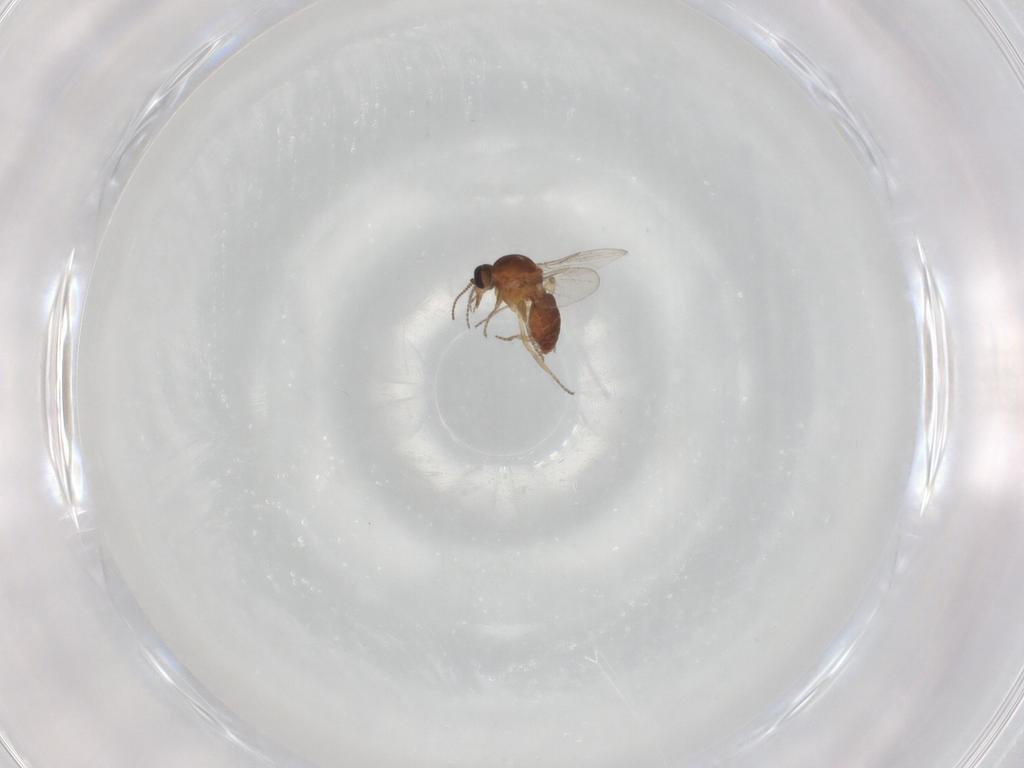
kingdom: Animalia
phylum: Arthropoda
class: Insecta
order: Diptera
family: Ceratopogonidae
